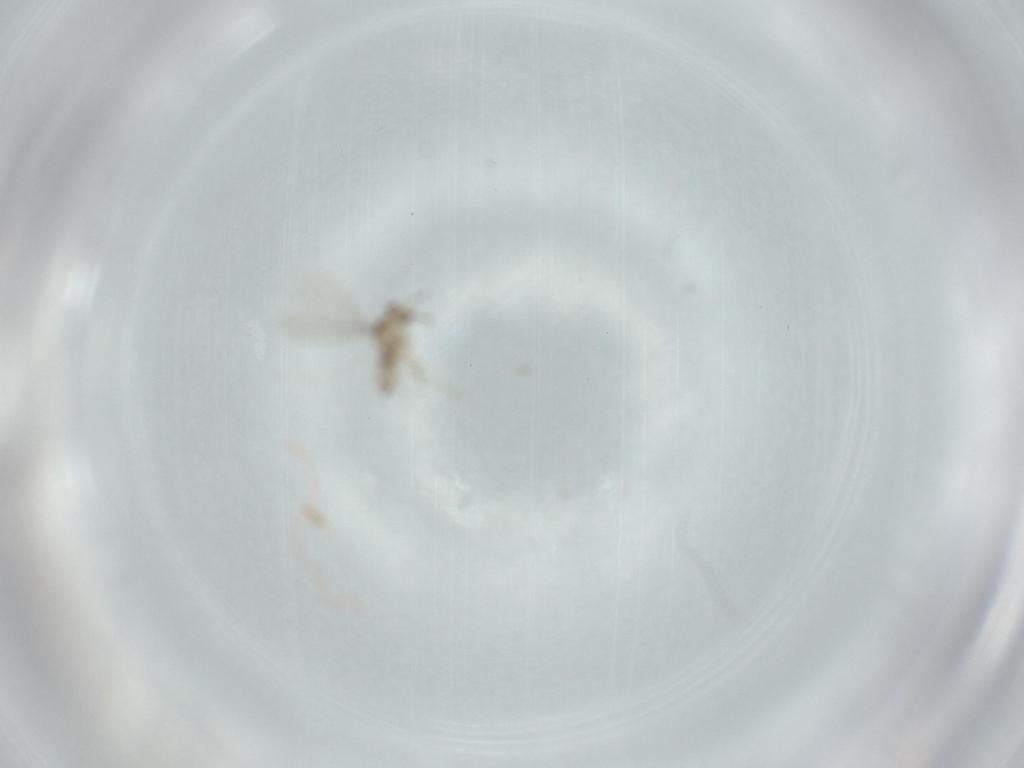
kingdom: Animalia
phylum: Arthropoda
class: Insecta
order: Diptera
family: Cecidomyiidae
